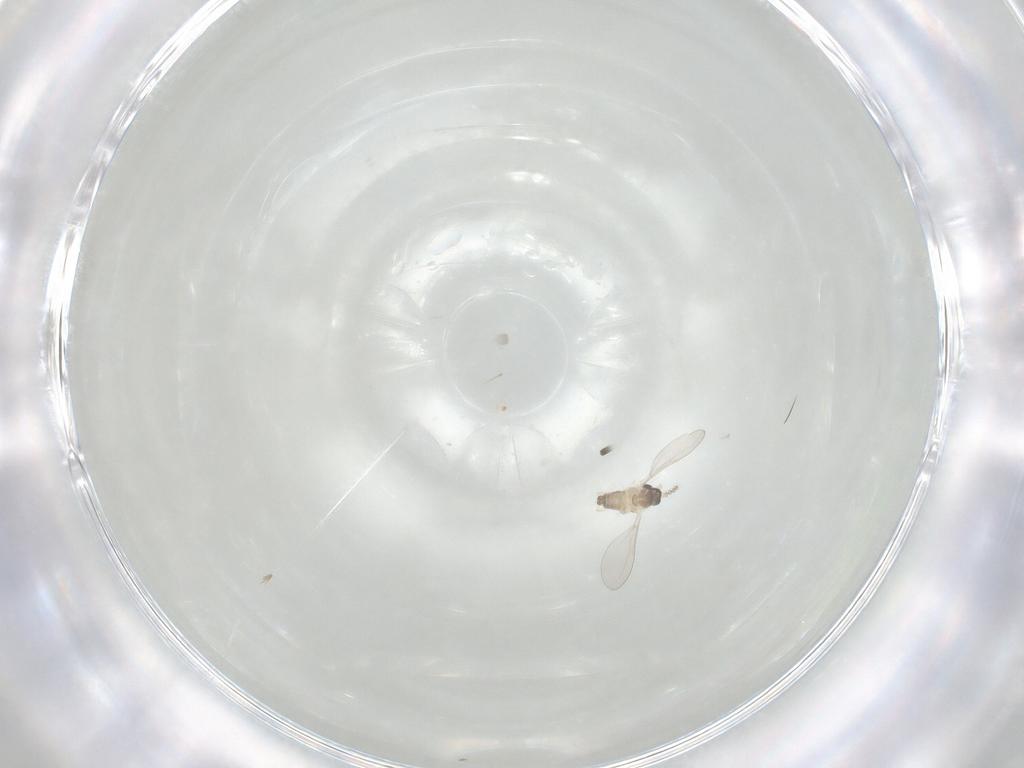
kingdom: Animalia
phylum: Arthropoda
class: Insecta
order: Diptera
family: Cecidomyiidae
